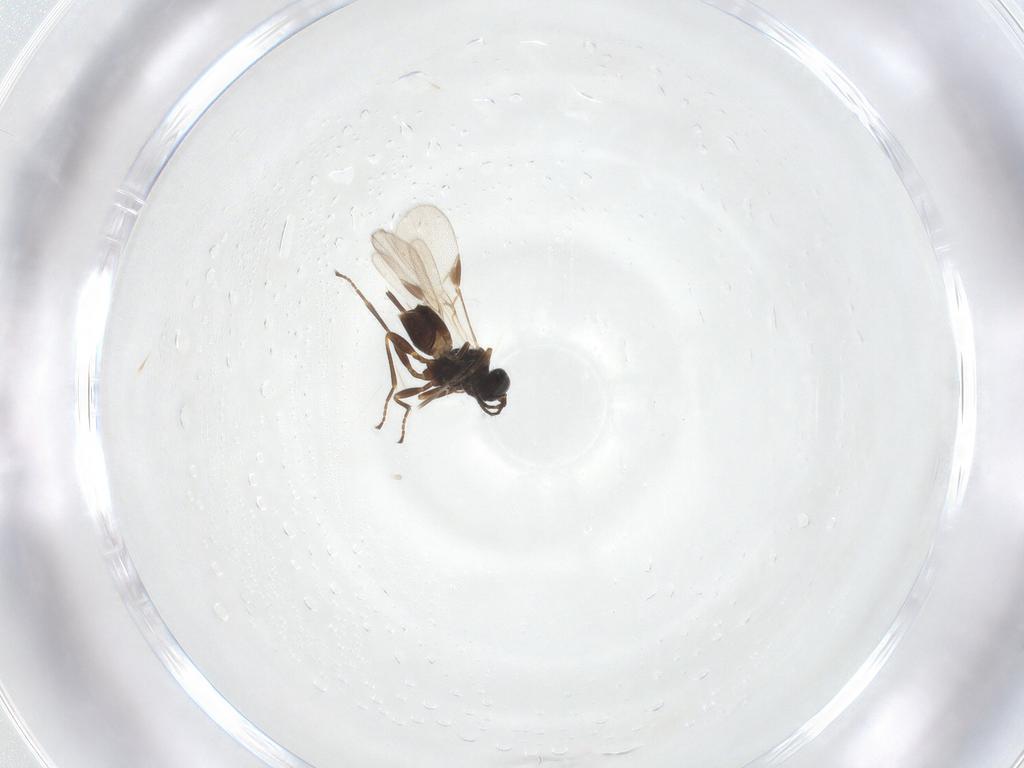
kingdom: Animalia
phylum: Arthropoda
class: Insecta
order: Hymenoptera
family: Braconidae
